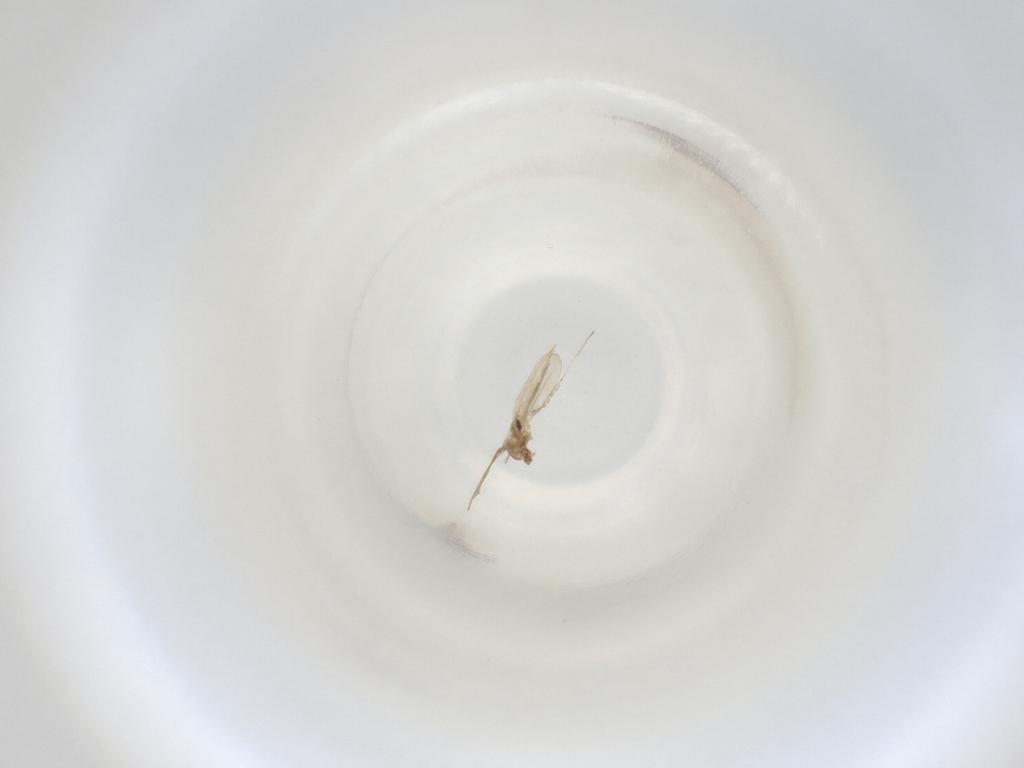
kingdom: Animalia
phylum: Arthropoda
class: Insecta
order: Diptera
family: Cecidomyiidae
